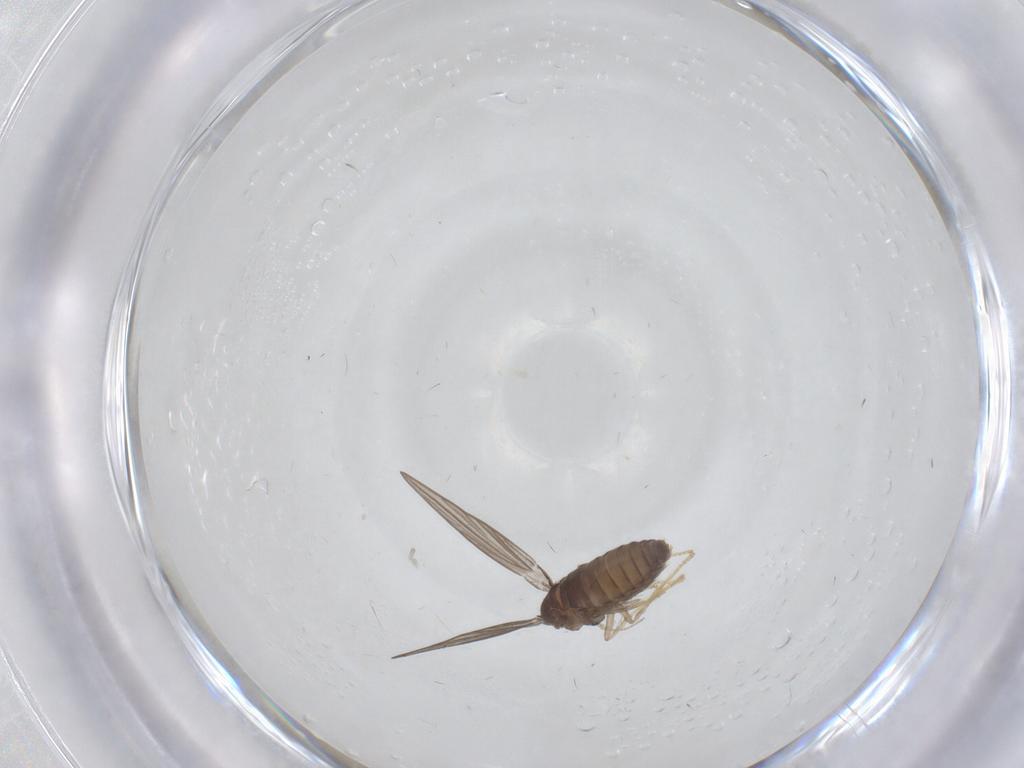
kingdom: Animalia
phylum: Arthropoda
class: Insecta
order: Diptera
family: Psychodidae
